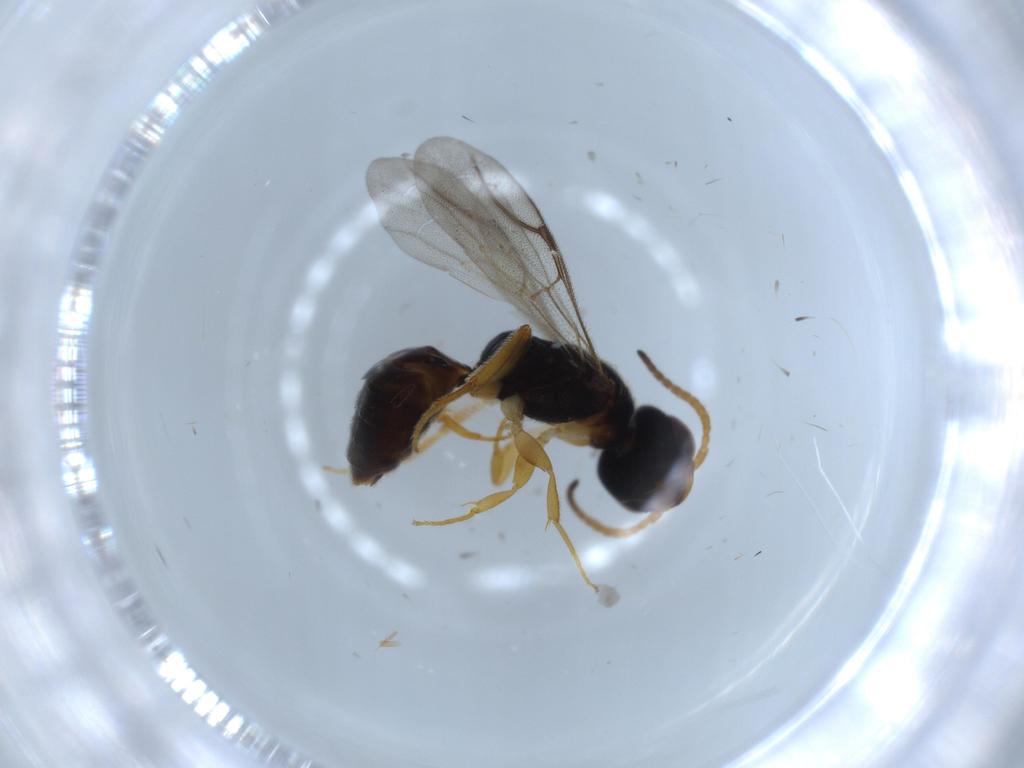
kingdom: Animalia
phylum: Arthropoda
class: Insecta
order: Hymenoptera
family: Bethylidae
